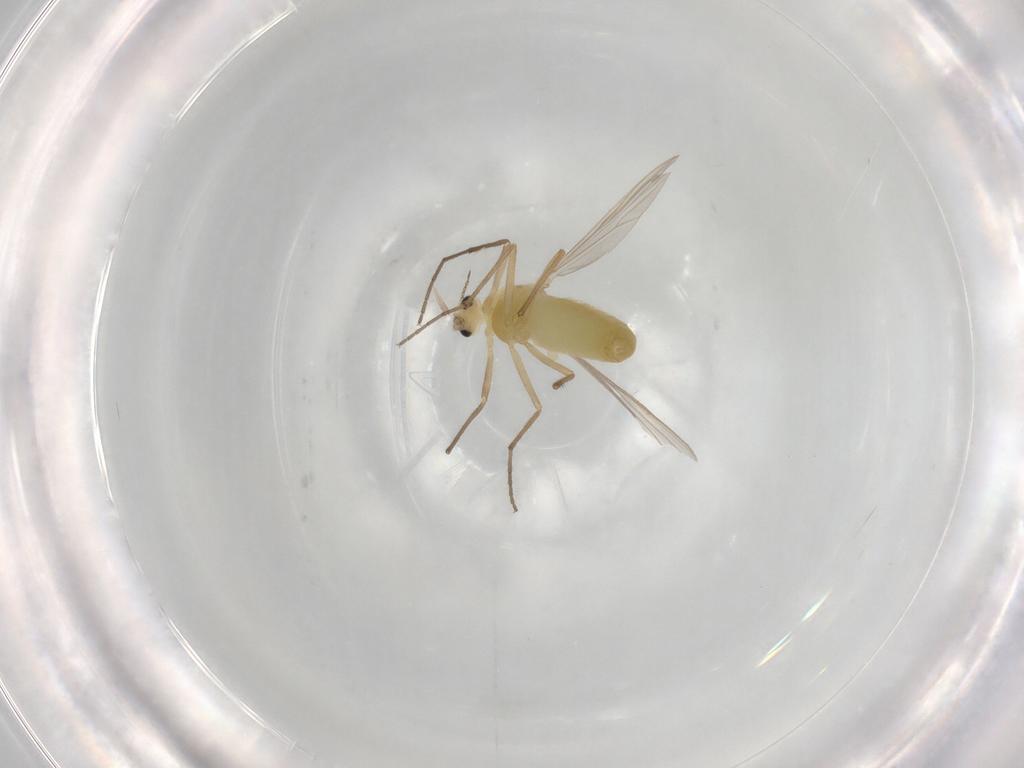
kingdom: Animalia
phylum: Arthropoda
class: Insecta
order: Diptera
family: Chironomidae
